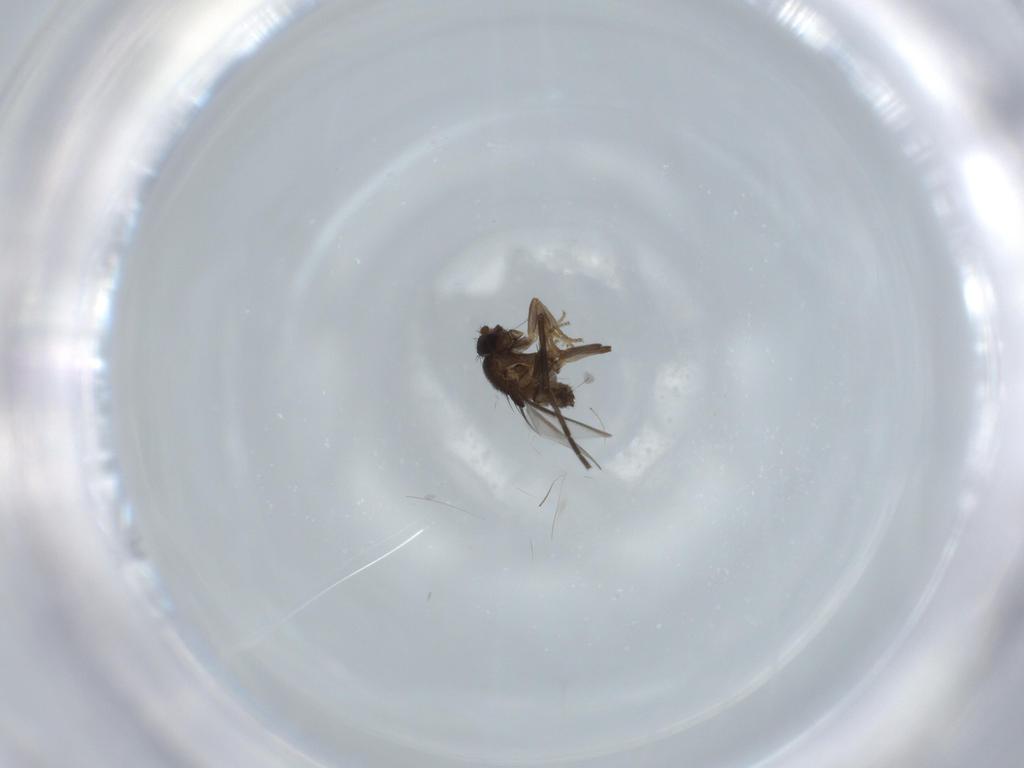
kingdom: Animalia
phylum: Arthropoda
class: Insecta
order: Diptera
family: Sphaeroceridae
